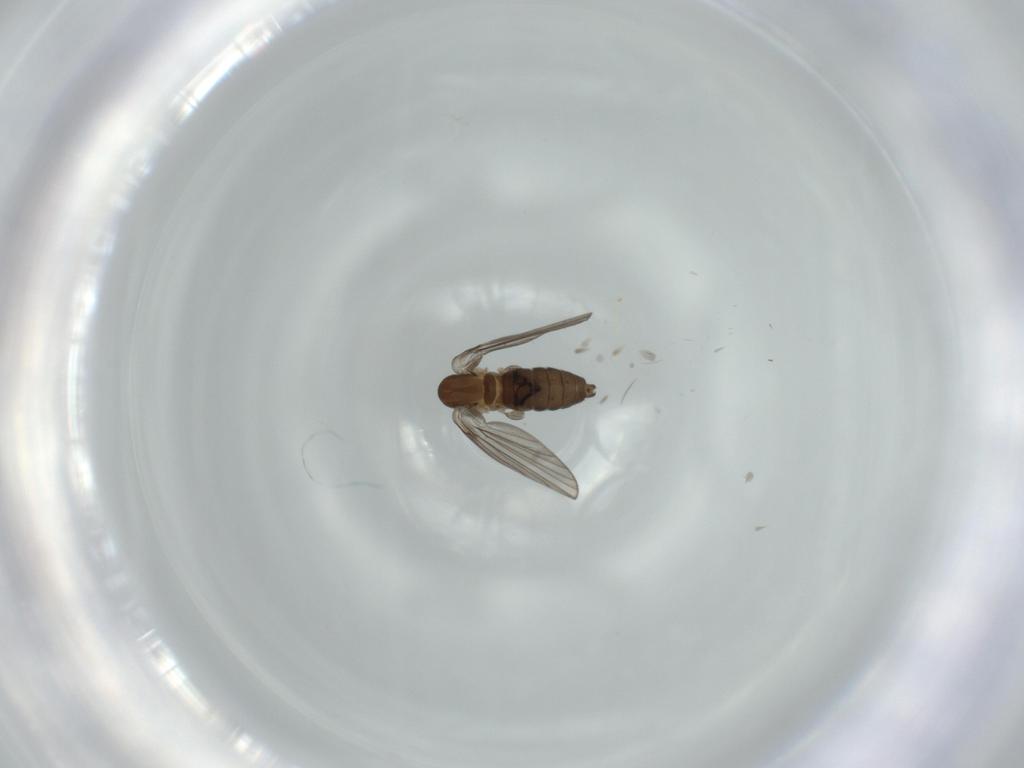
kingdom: Animalia
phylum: Arthropoda
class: Insecta
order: Diptera
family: Psychodidae
